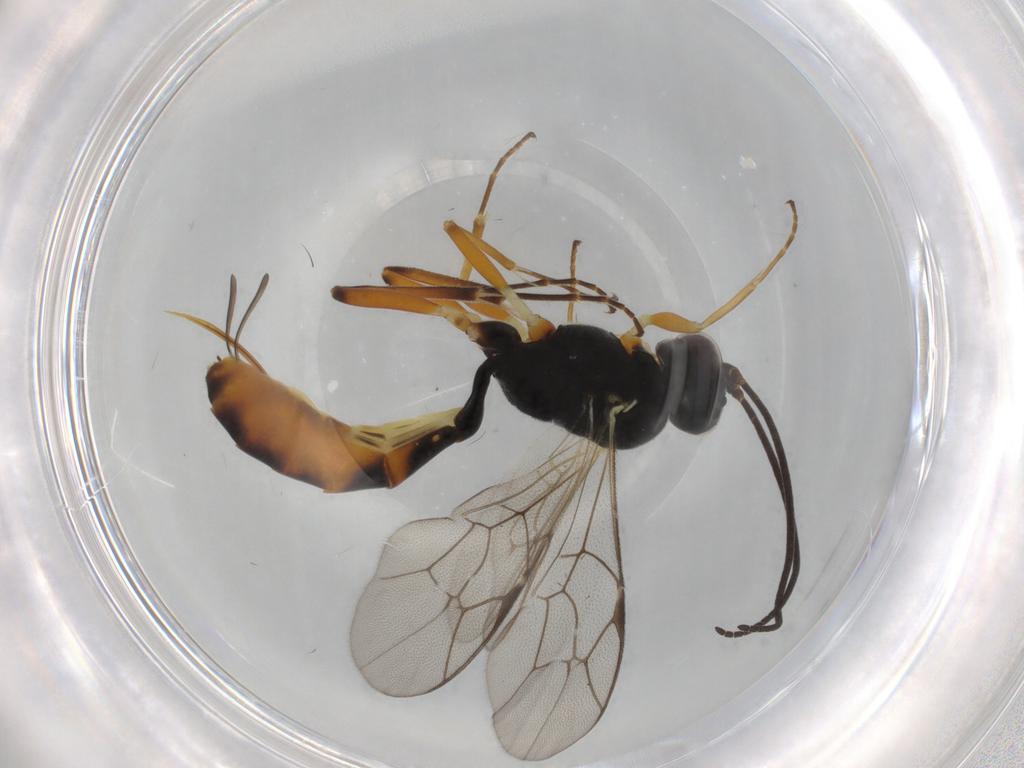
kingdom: Animalia
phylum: Arthropoda
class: Insecta
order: Hymenoptera
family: Ichneumonidae
